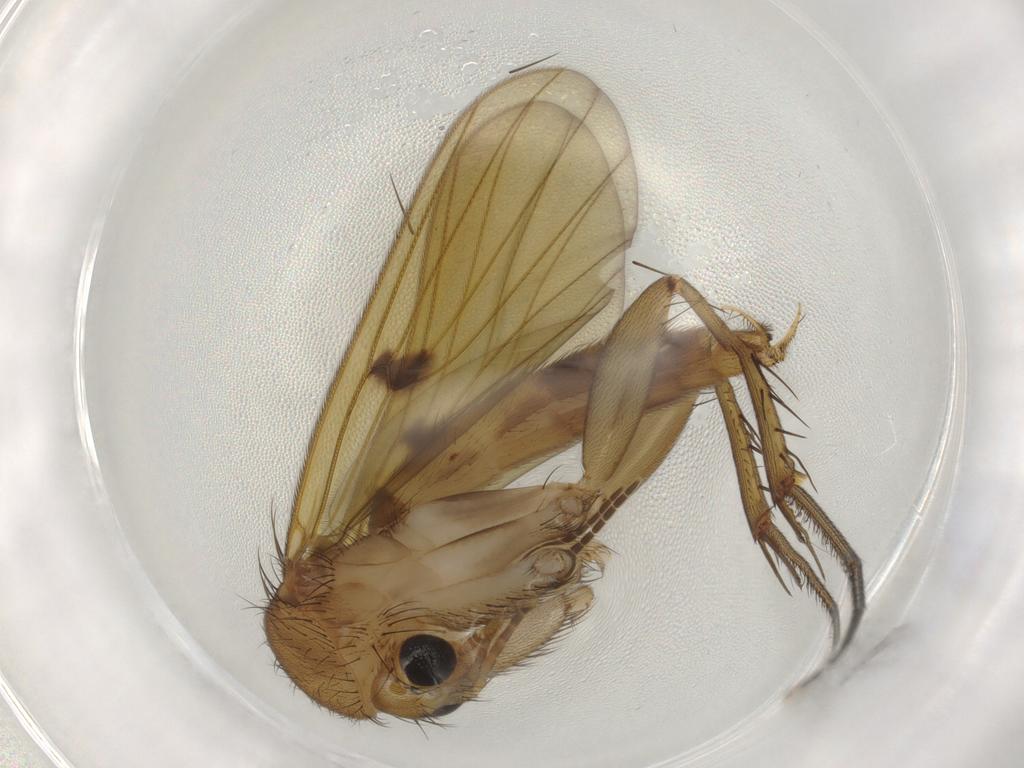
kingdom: Animalia
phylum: Arthropoda
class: Insecta
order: Diptera
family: Mycetophilidae
